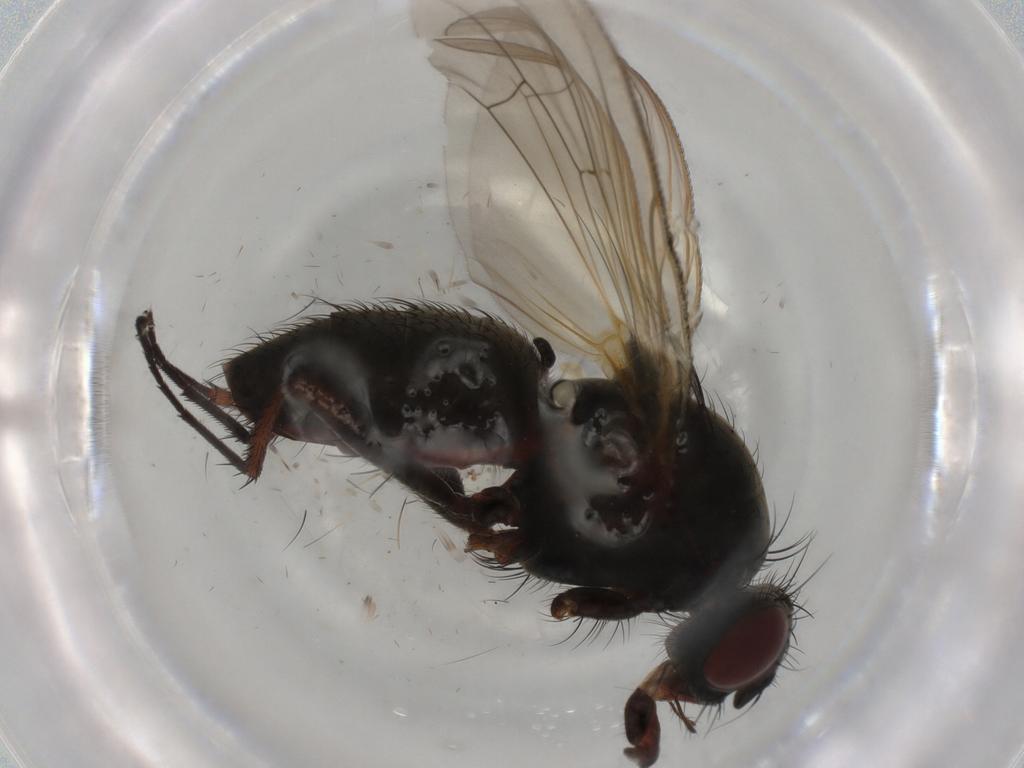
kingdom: Animalia
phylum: Arthropoda
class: Insecta
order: Diptera
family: Anthomyiidae
